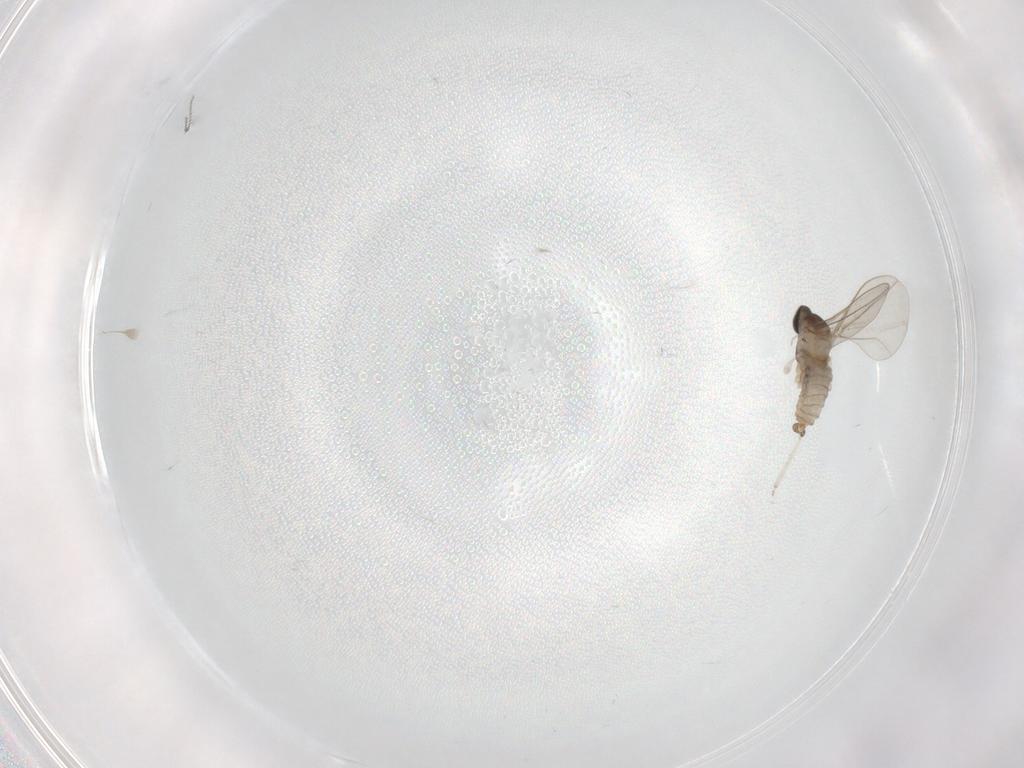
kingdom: Animalia
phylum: Arthropoda
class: Insecta
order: Diptera
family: Cecidomyiidae
